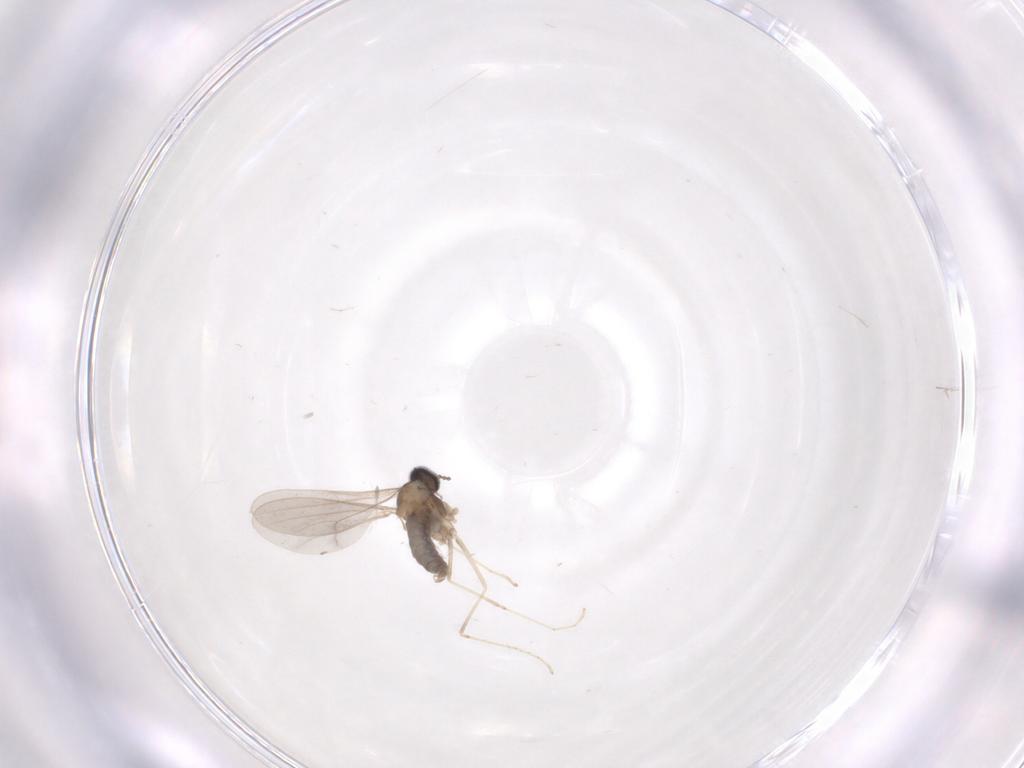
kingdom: Animalia
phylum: Arthropoda
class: Insecta
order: Diptera
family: Cecidomyiidae
